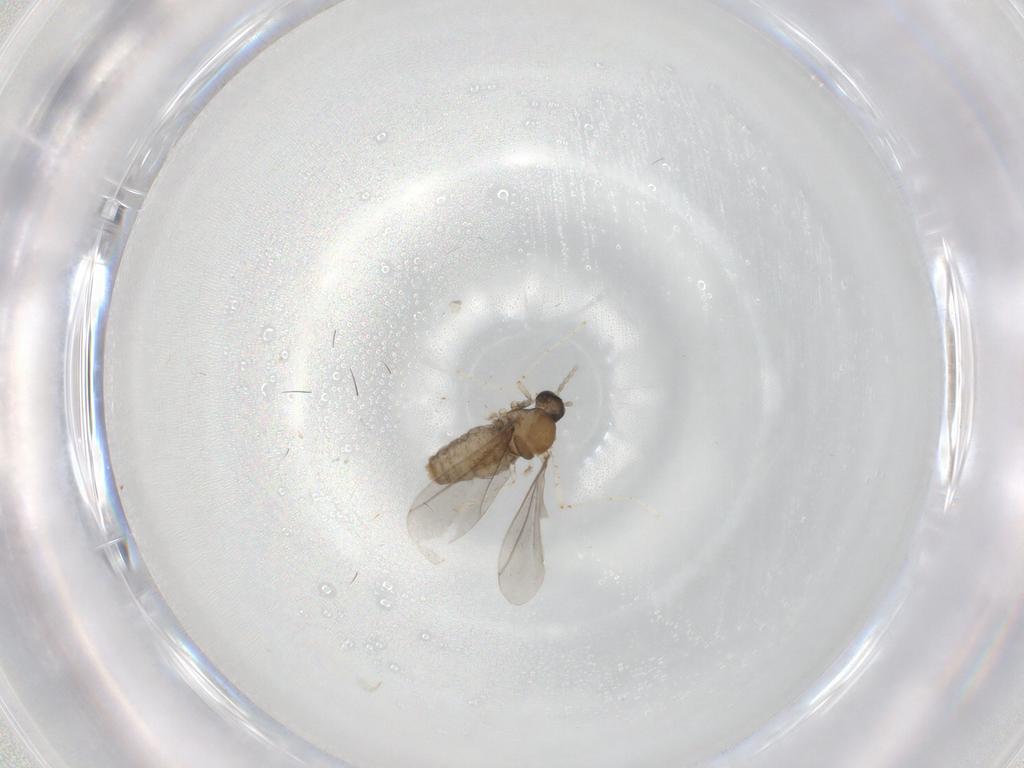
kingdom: Animalia
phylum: Arthropoda
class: Insecta
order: Diptera
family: Cecidomyiidae
